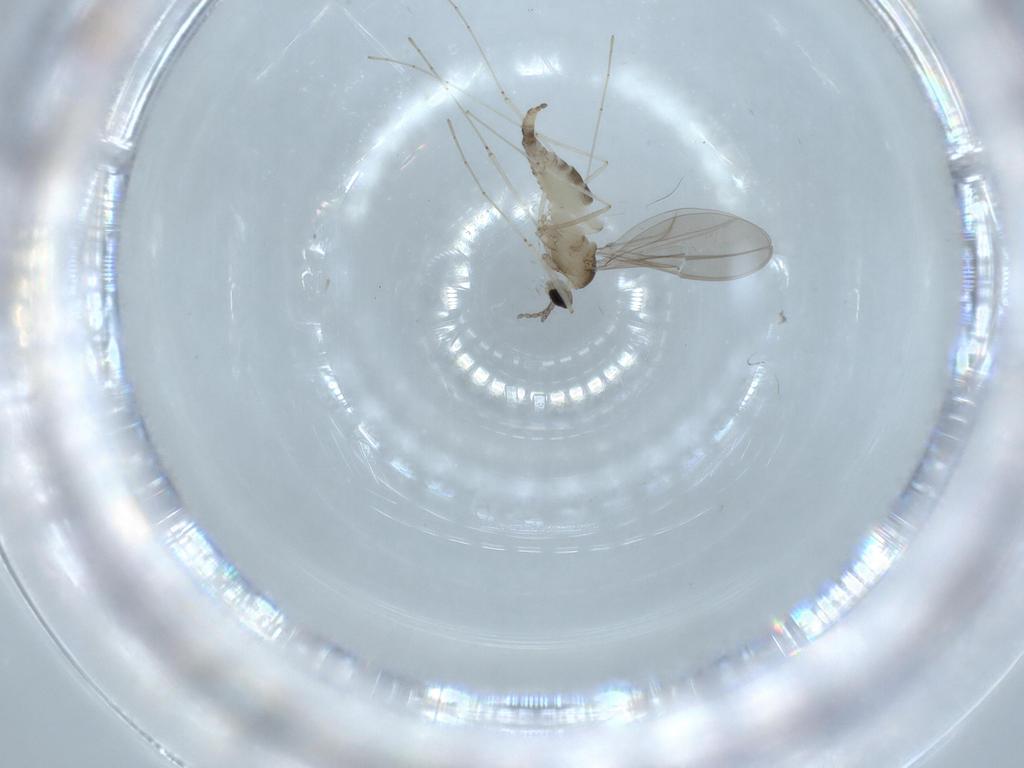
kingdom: Animalia
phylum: Arthropoda
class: Insecta
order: Diptera
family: Cecidomyiidae
